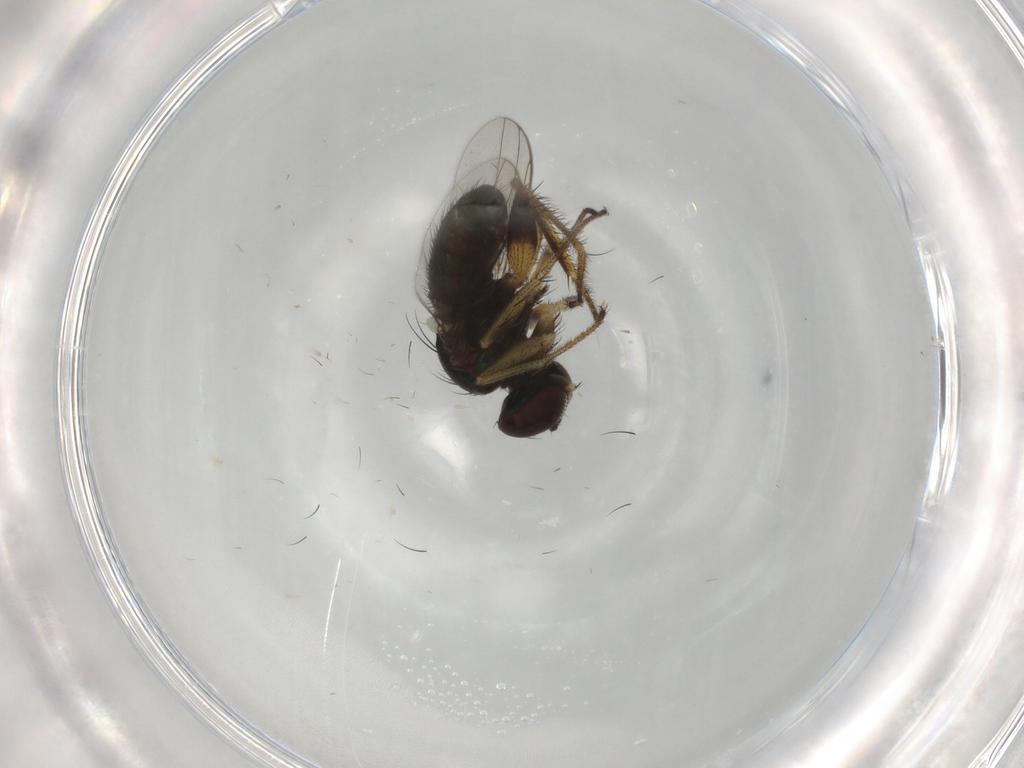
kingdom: Animalia
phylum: Arthropoda
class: Insecta
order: Diptera
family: Dolichopodidae
